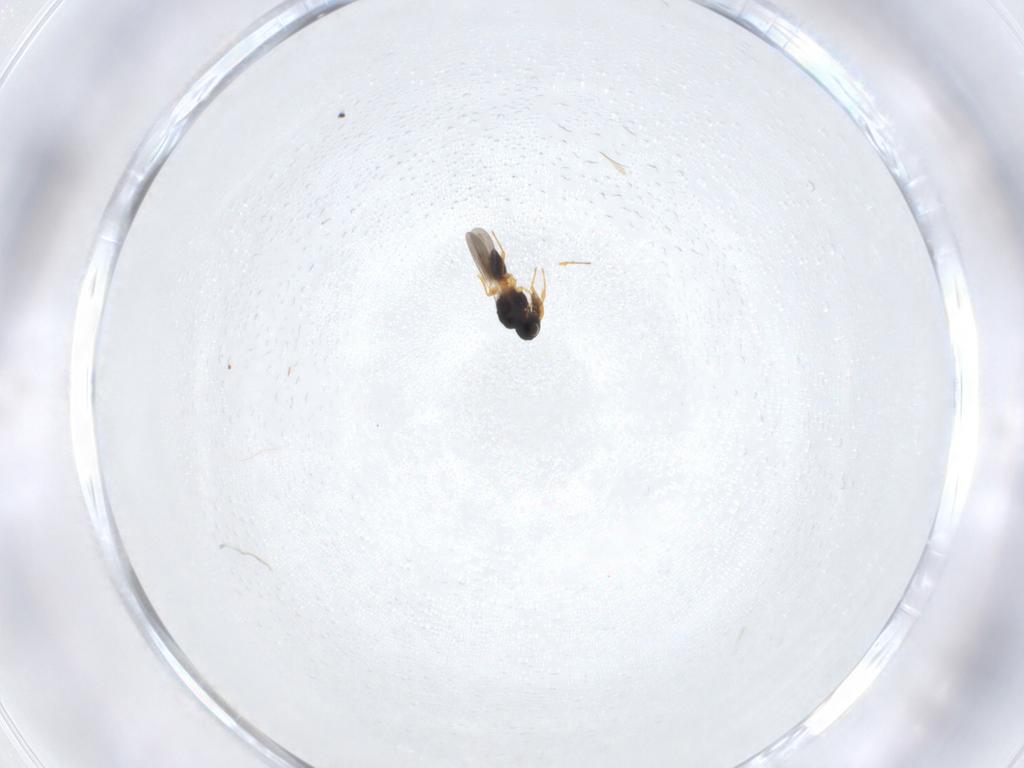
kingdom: Animalia
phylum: Arthropoda
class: Insecta
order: Hymenoptera
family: Platygastridae
